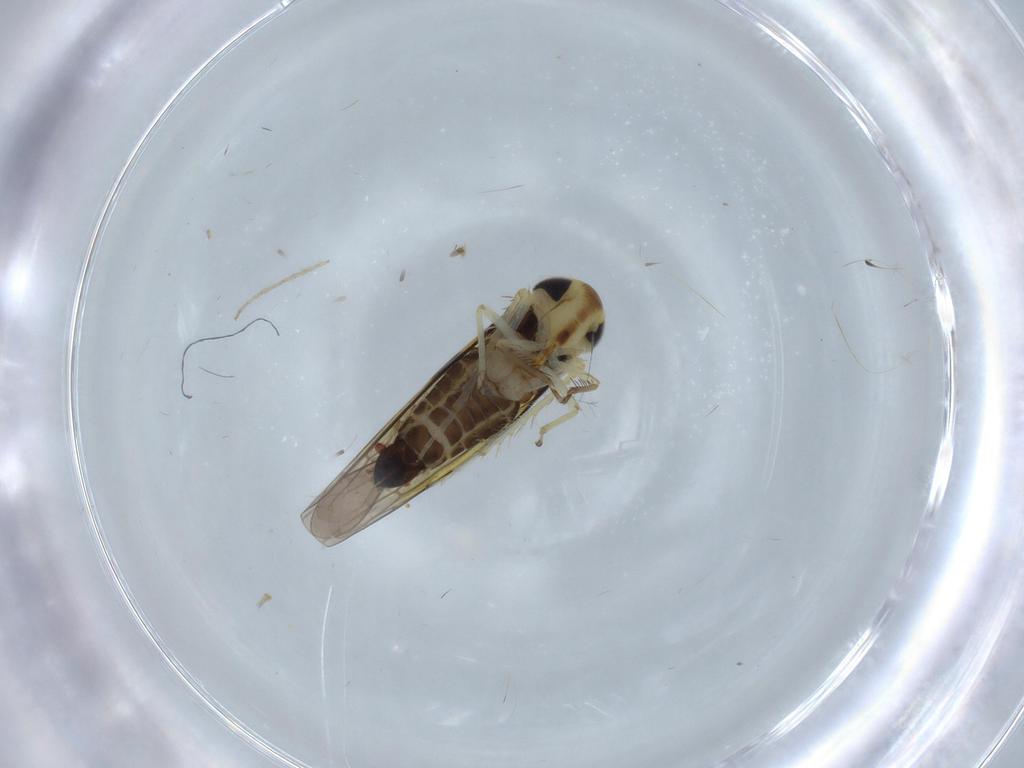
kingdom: Animalia
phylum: Arthropoda
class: Insecta
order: Hemiptera
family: Cicadellidae
